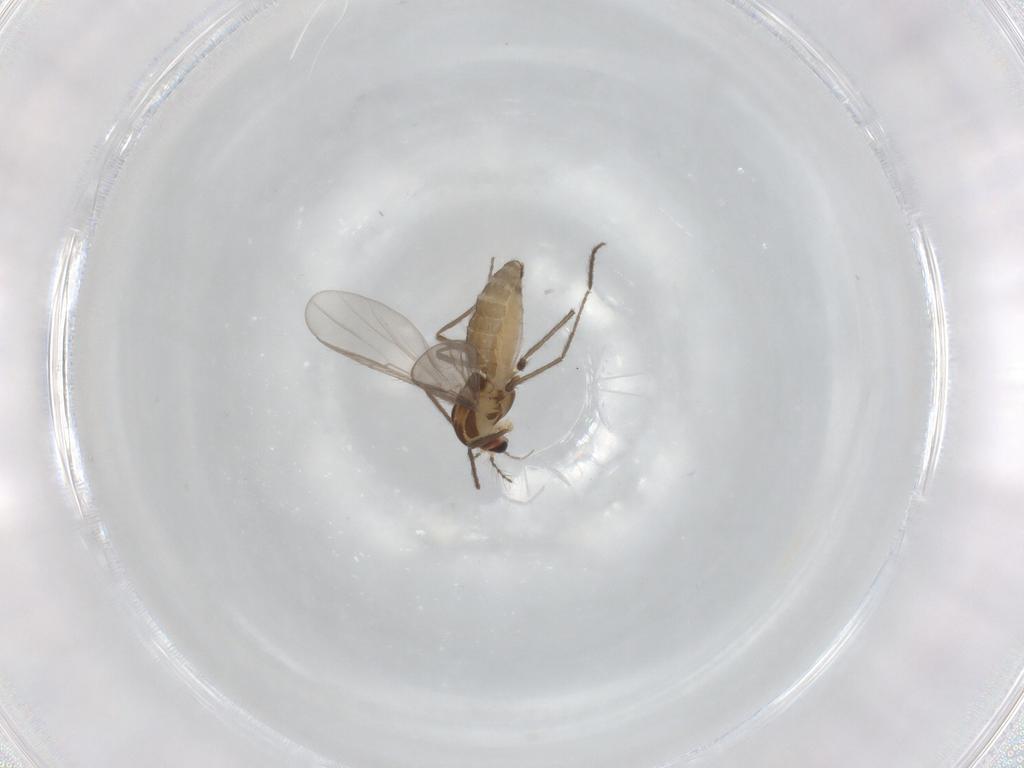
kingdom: Animalia
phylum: Arthropoda
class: Insecta
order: Diptera
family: Chironomidae
